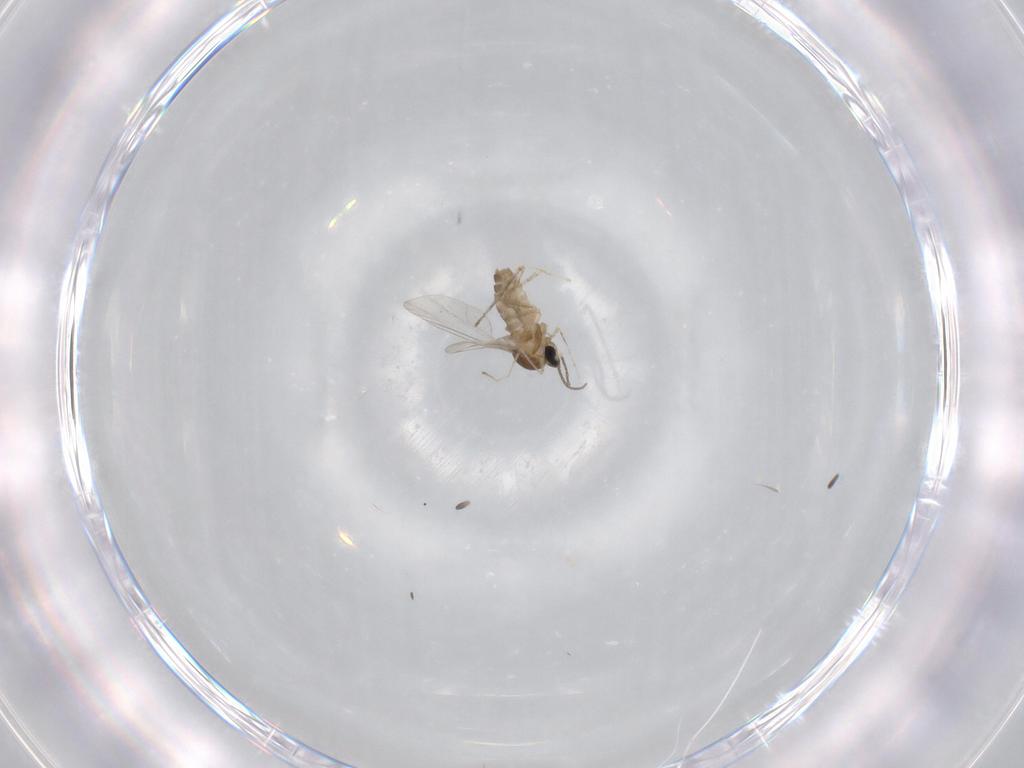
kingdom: Animalia
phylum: Arthropoda
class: Insecta
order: Diptera
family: Cecidomyiidae
